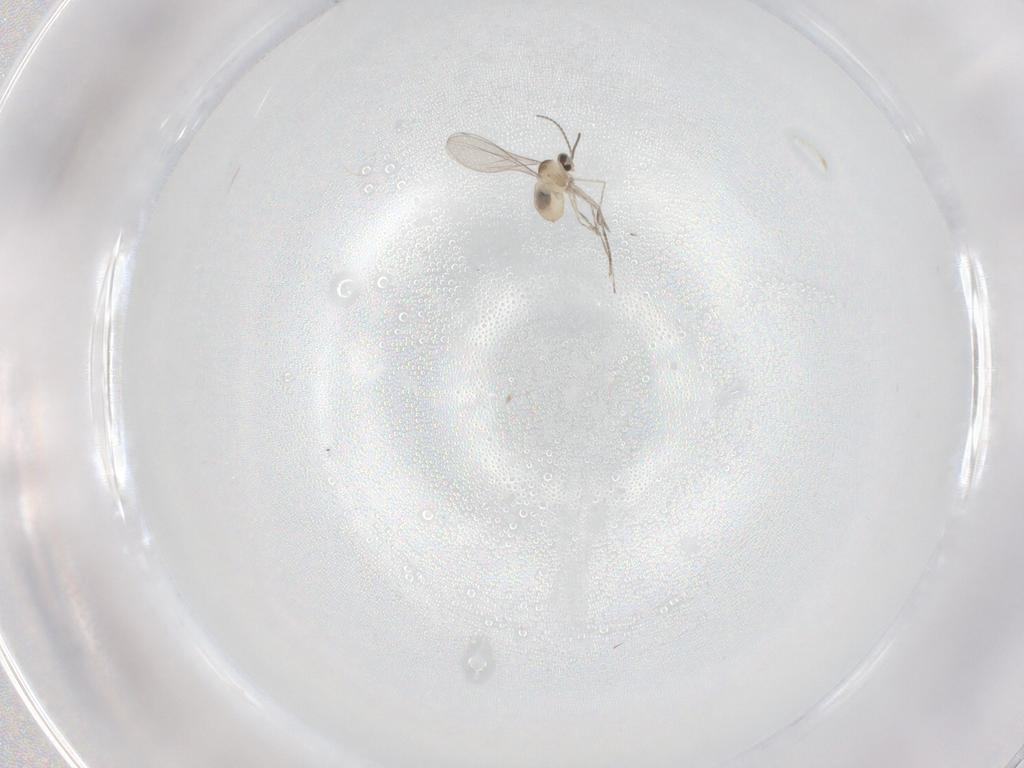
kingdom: Animalia
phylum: Arthropoda
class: Insecta
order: Diptera
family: Cecidomyiidae
